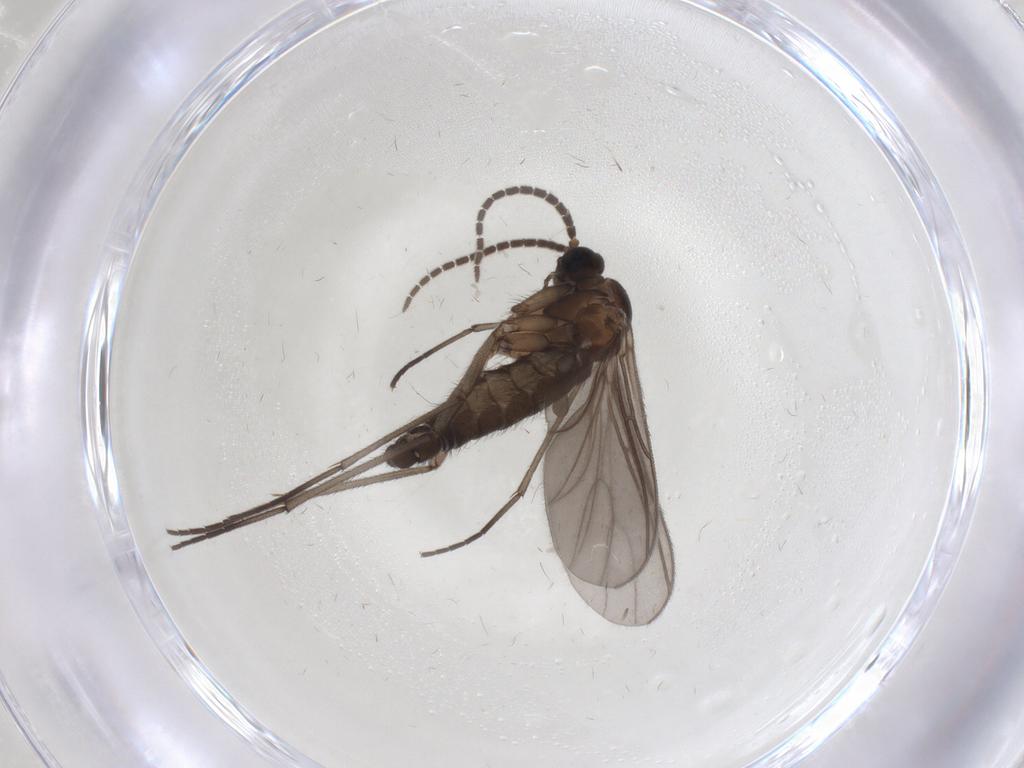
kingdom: Animalia
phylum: Arthropoda
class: Insecta
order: Diptera
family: Sciaridae
